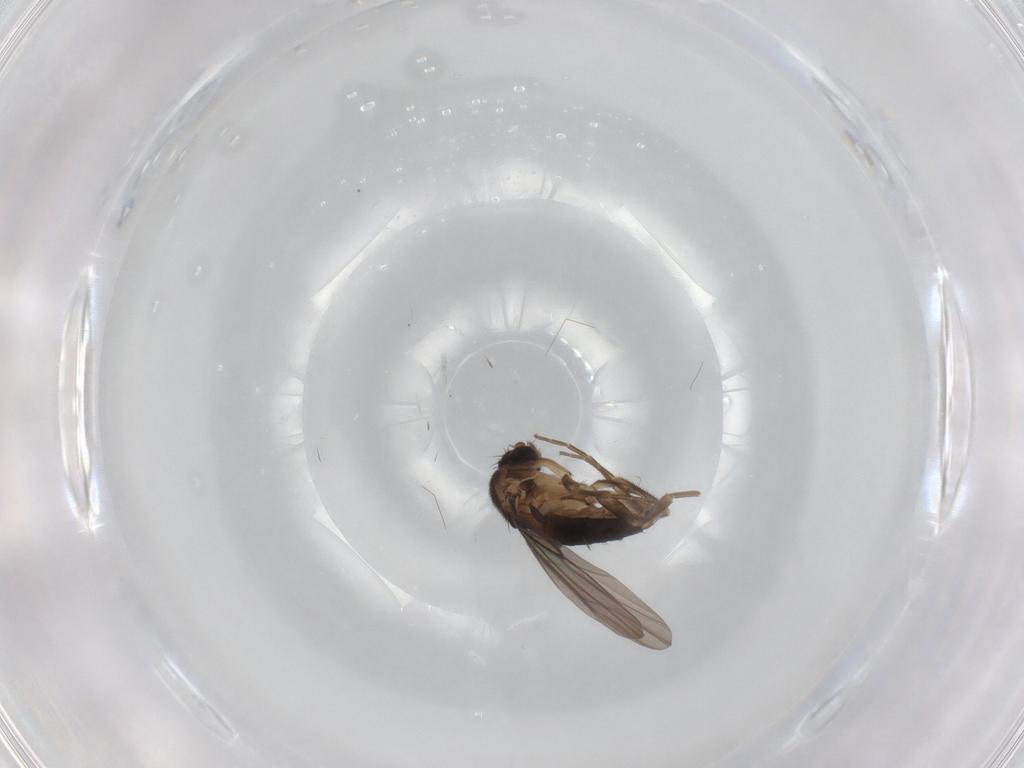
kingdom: Animalia
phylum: Arthropoda
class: Insecta
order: Diptera
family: Phoridae
